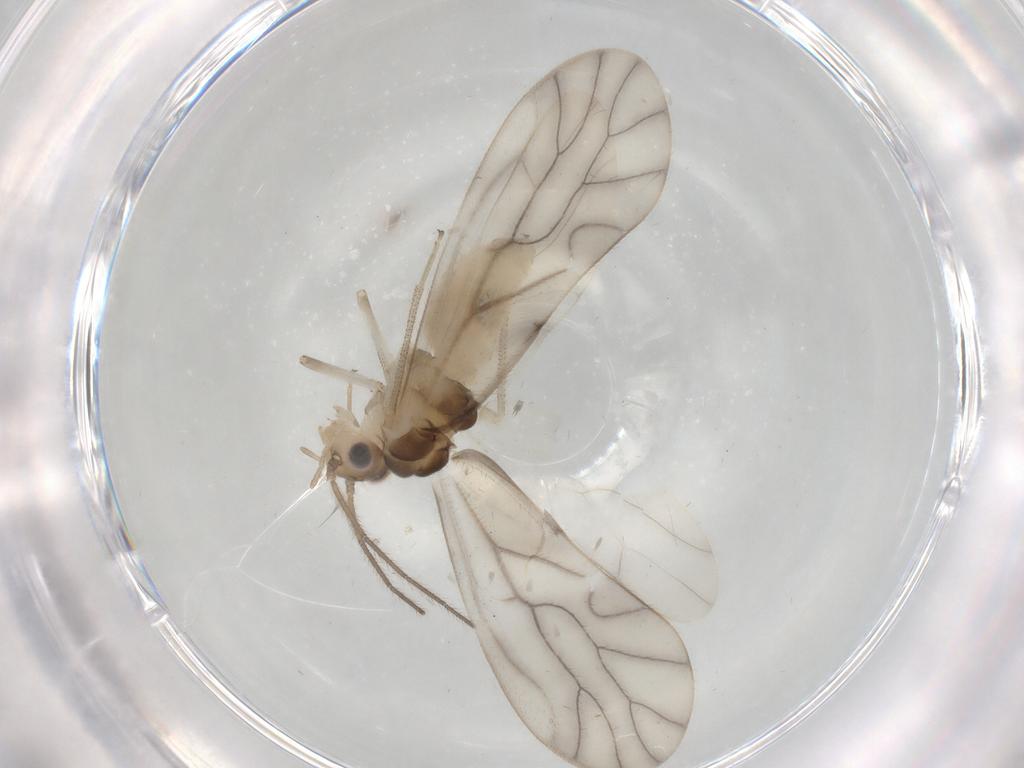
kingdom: Animalia
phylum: Arthropoda
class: Insecta
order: Psocodea
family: Caeciliusidae
